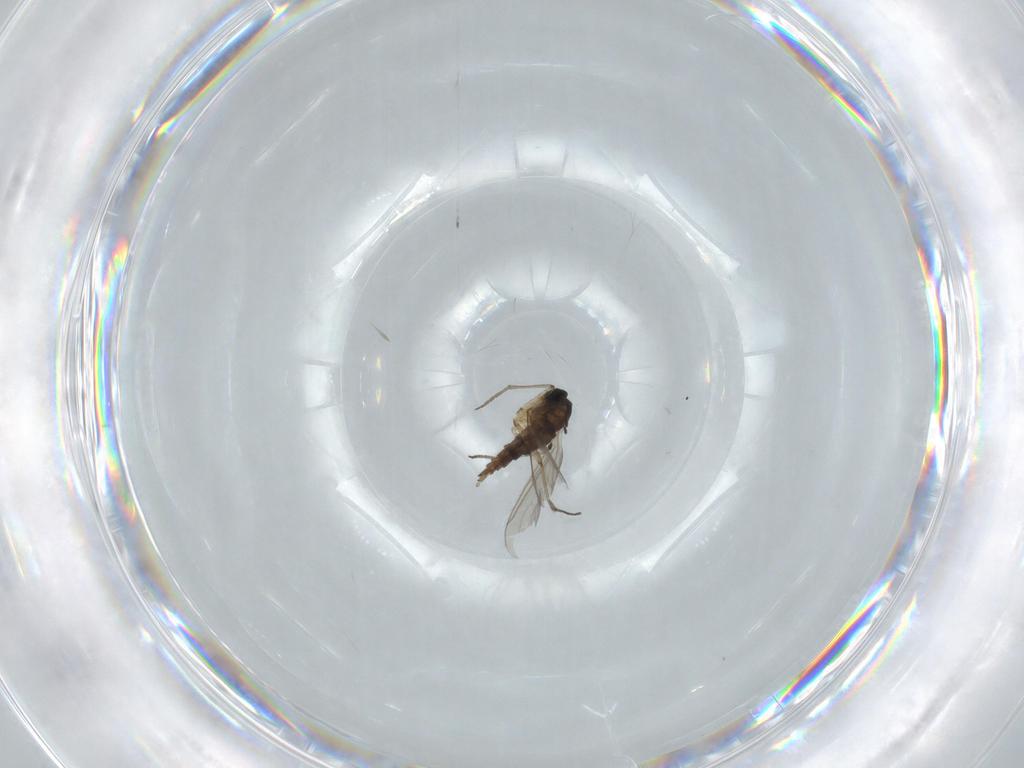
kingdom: Animalia
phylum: Arthropoda
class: Insecta
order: Diptera
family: Sciaridae
